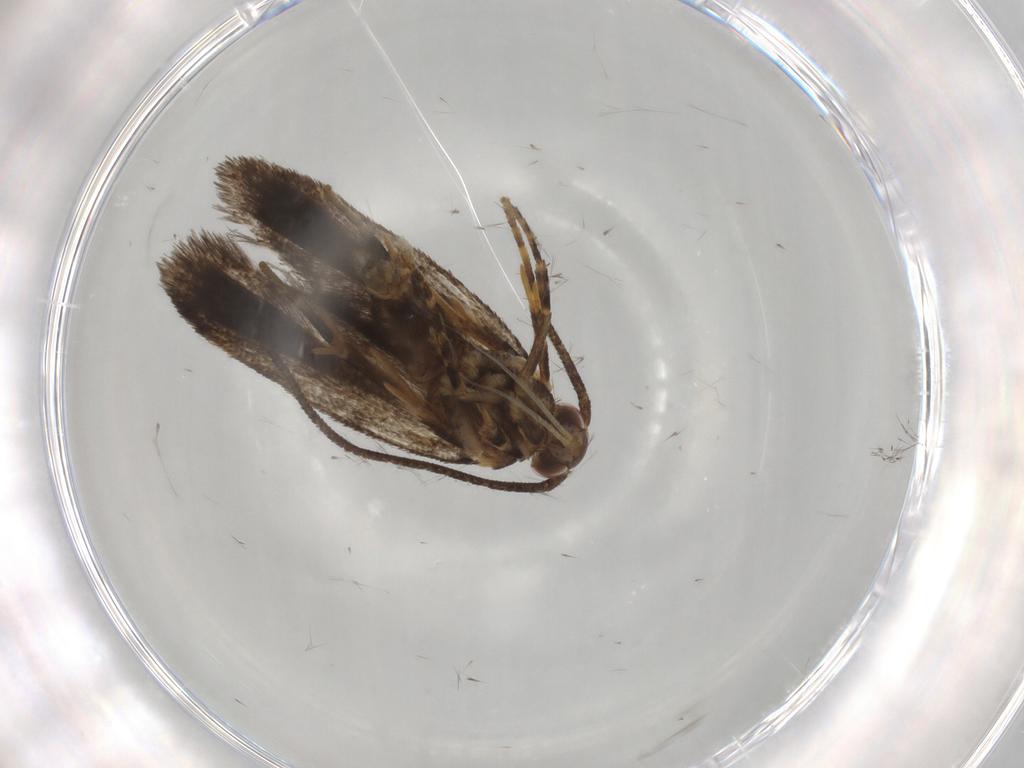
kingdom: Animalia
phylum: Arthropoda
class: Insecta
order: Lepidoptera
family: Autostichidae
